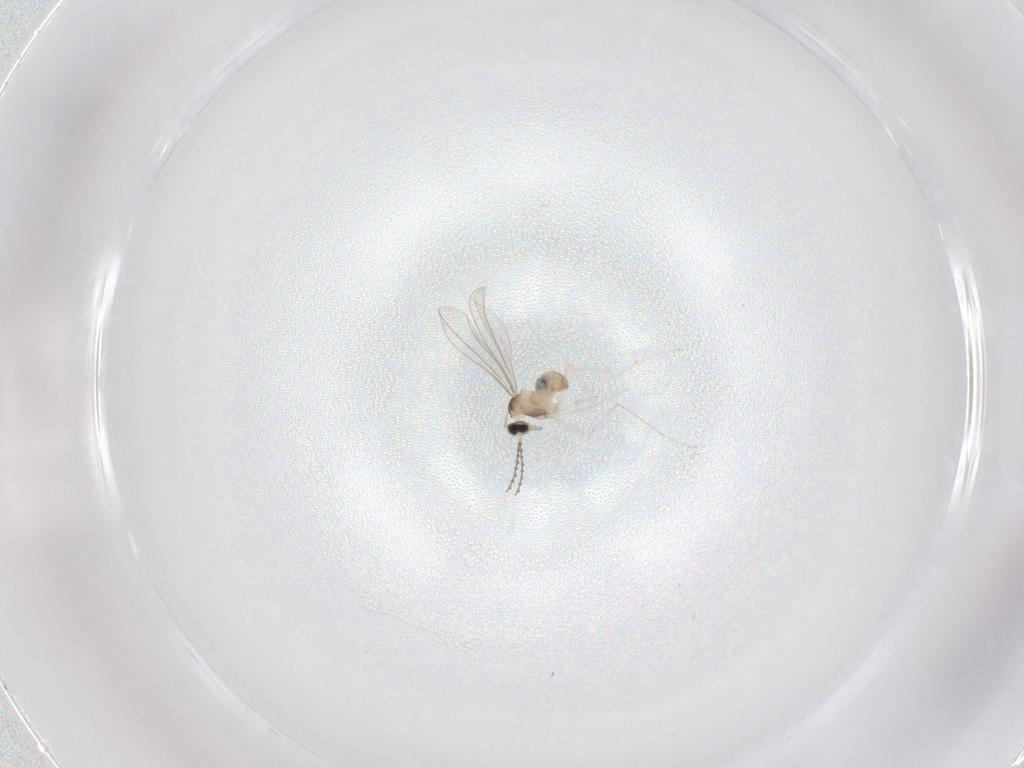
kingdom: Animalia
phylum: Arthropoda
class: Insecta
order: Diptera
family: Cecidomyiidae
